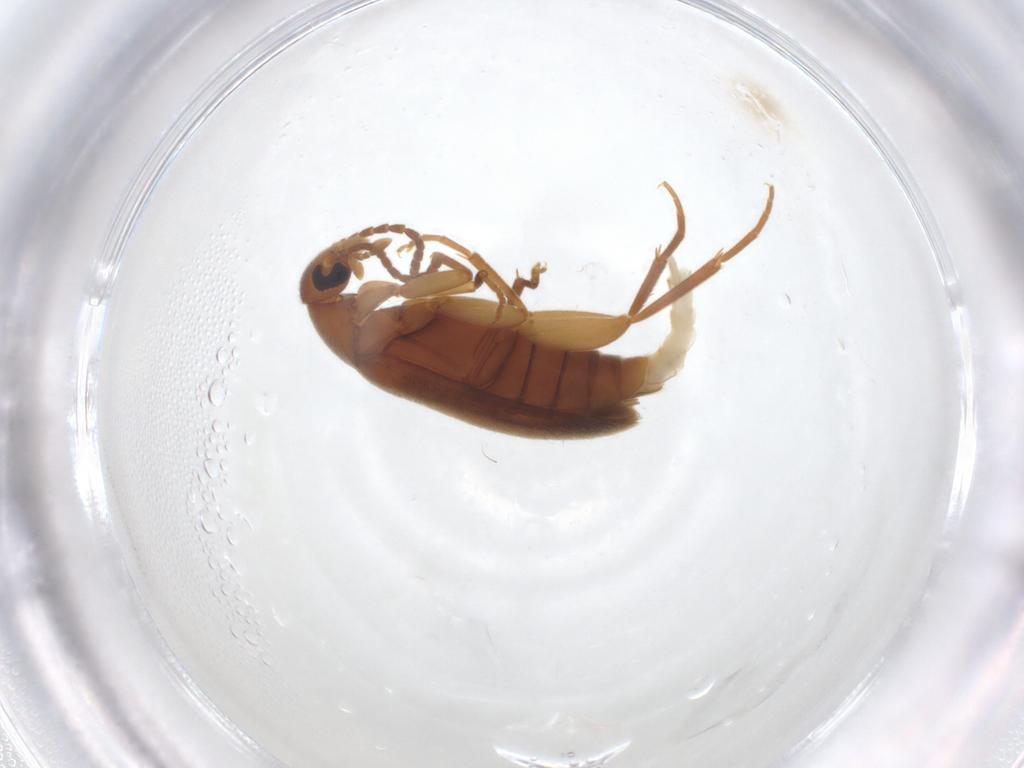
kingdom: Animalia
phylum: Arthropoda
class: Insecta
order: Coleoptera
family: Scraptiidae
